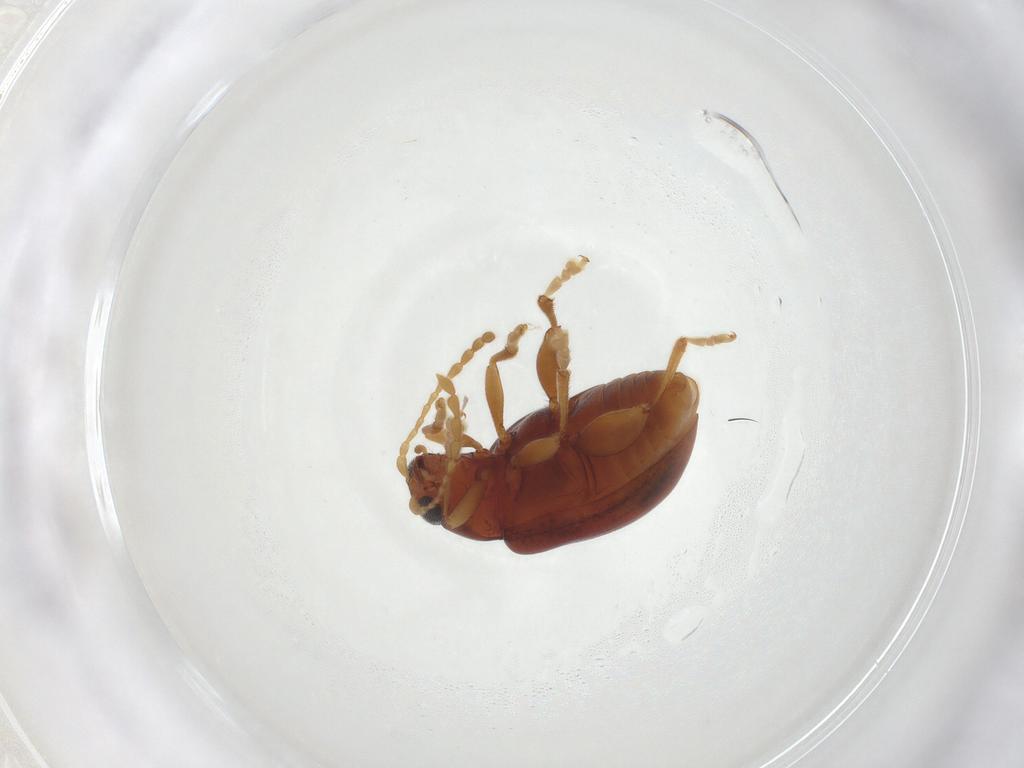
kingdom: Animalia
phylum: Arthropoda
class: Insecta
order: Coleoptera
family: Chrysomelidae
